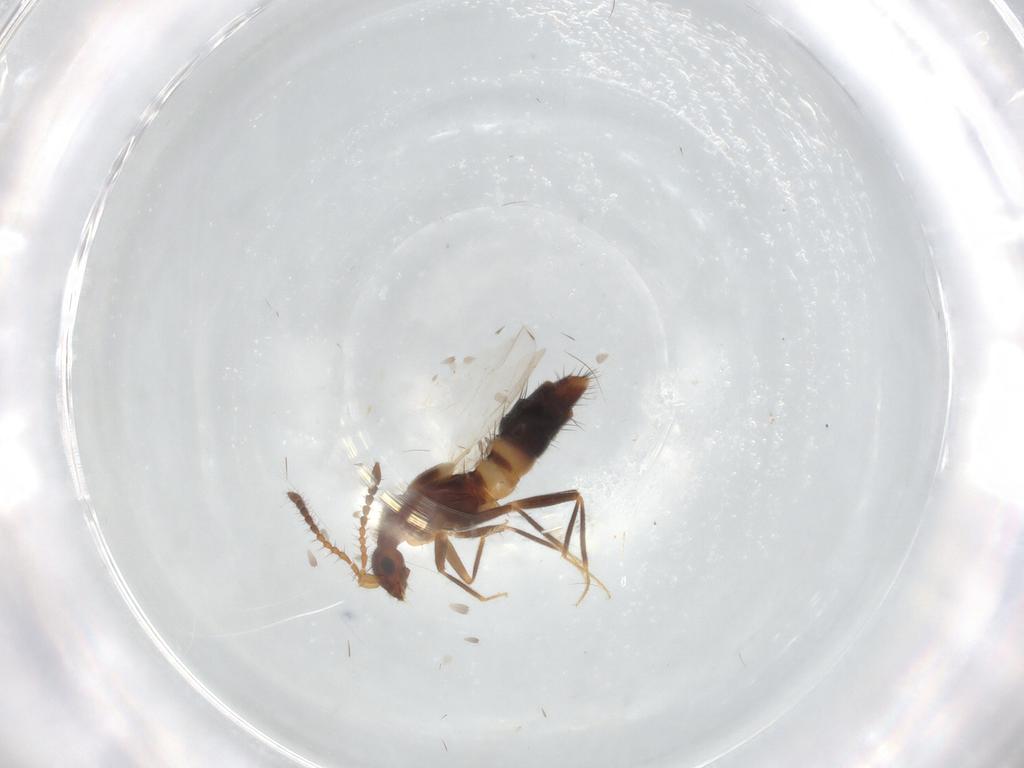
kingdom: Animalia
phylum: Arthropoda
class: Insecta
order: Coleoptera
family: Staphylinidae
